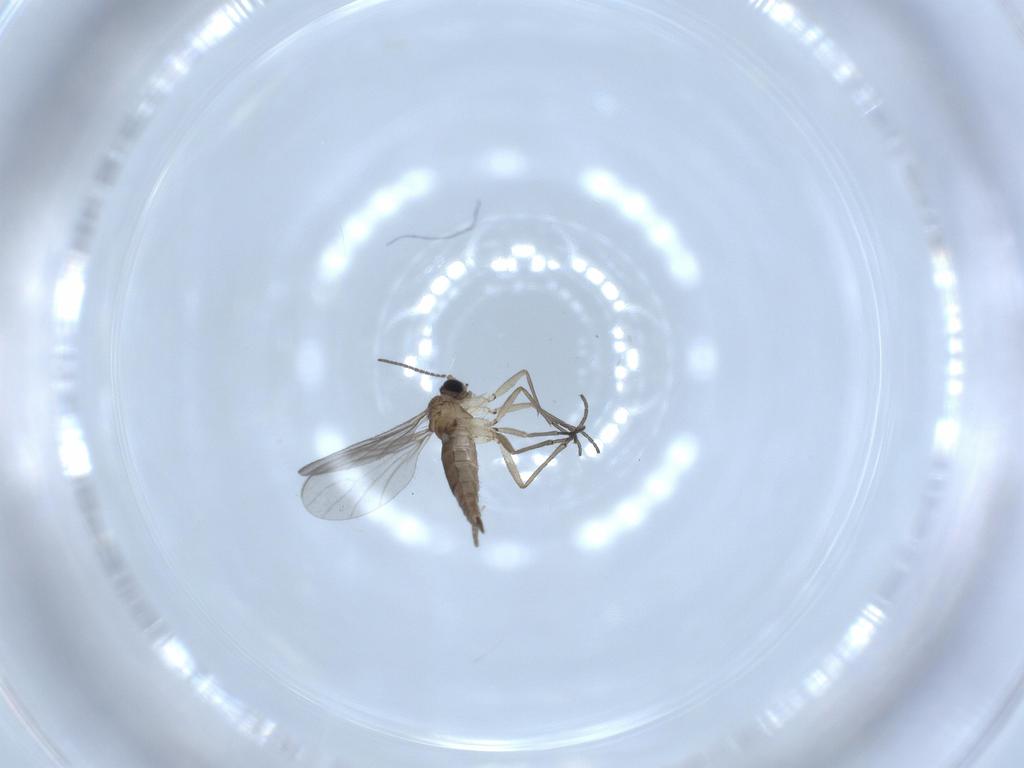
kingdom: Animalia
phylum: Arthropoda
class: Insecta
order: Diptera
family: Sciaridae
